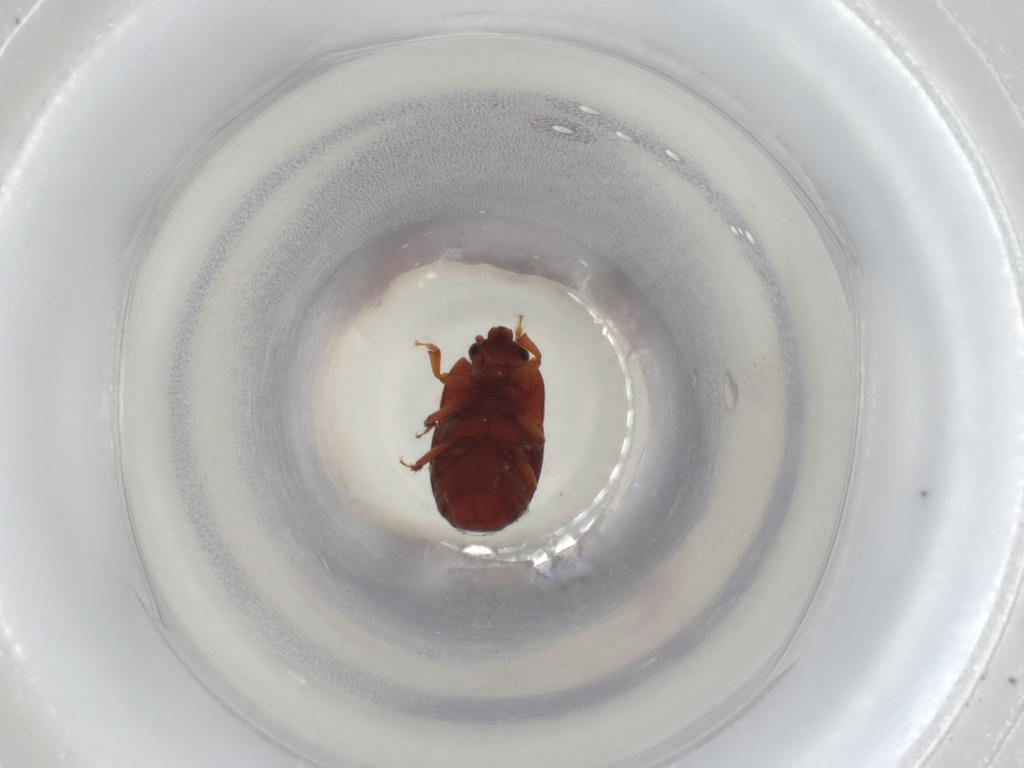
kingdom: Animalia
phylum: Arthropoda
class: Insecta
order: Coleoptera
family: Nitidulidae
